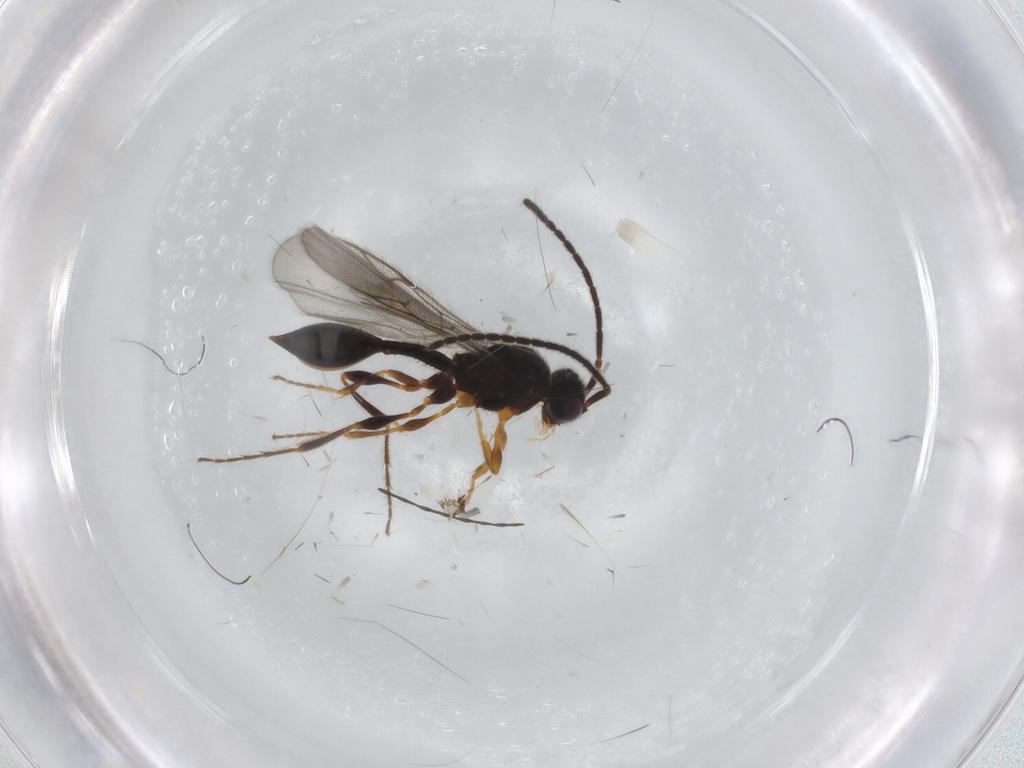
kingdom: Animalia
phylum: Arthropoda
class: Insecta
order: Hymenoptera
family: Diapriidae
